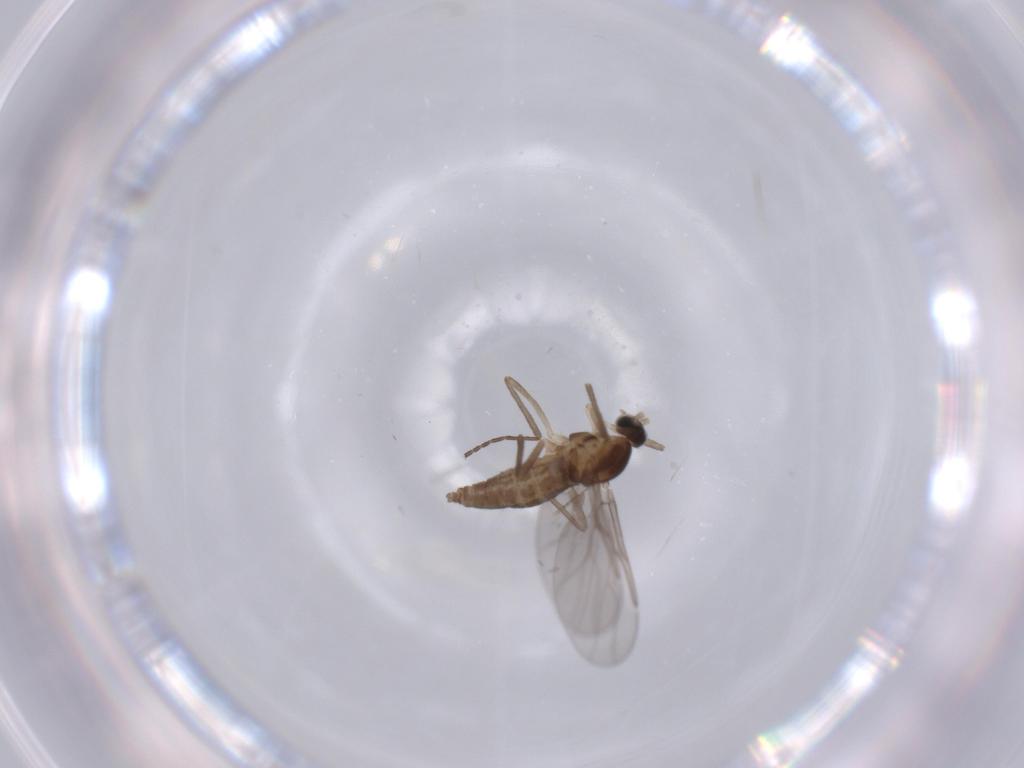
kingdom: Animalia
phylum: Arthropoda
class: Insecta
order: Diptera
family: Chironomidae
